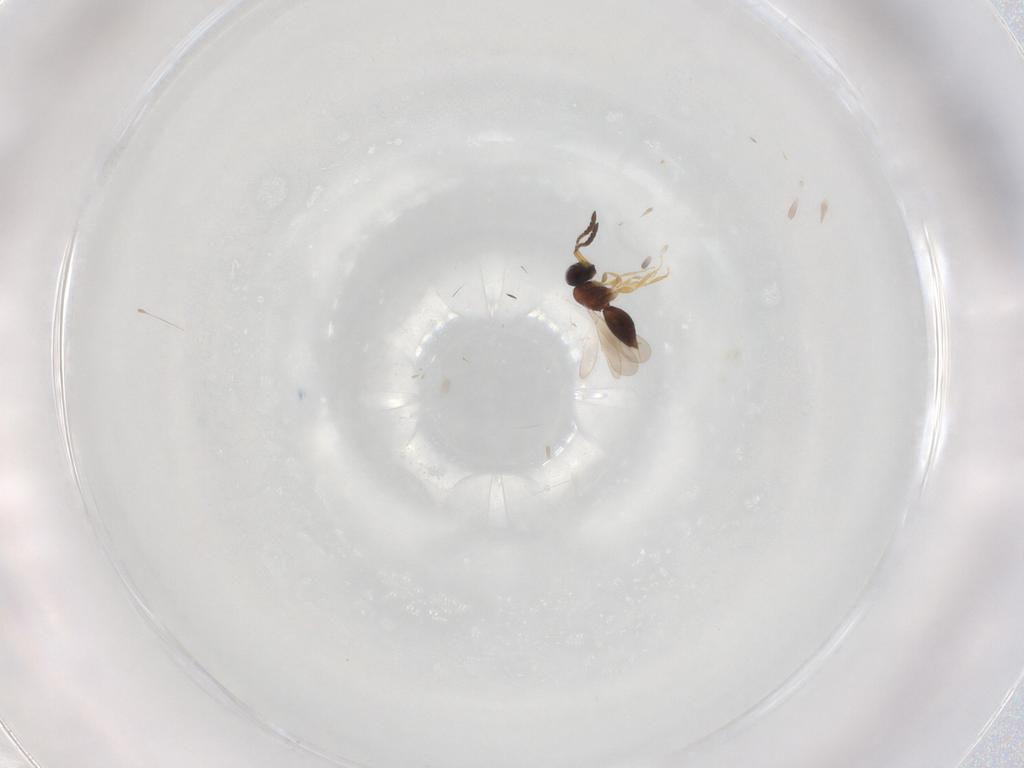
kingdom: Animalia
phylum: Arthropoda
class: Insecta
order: Hymenoptera
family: Ceraphronidae
